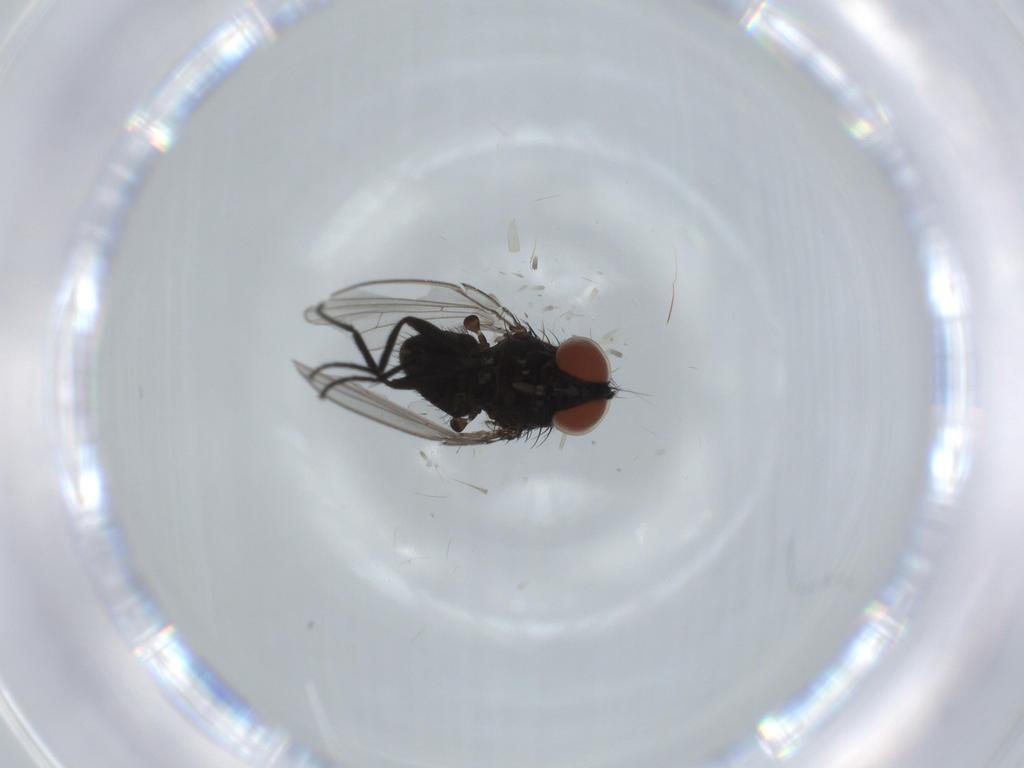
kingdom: Animalia
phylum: Arthropoda
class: Insecta
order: Diptera
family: Milichiidae
